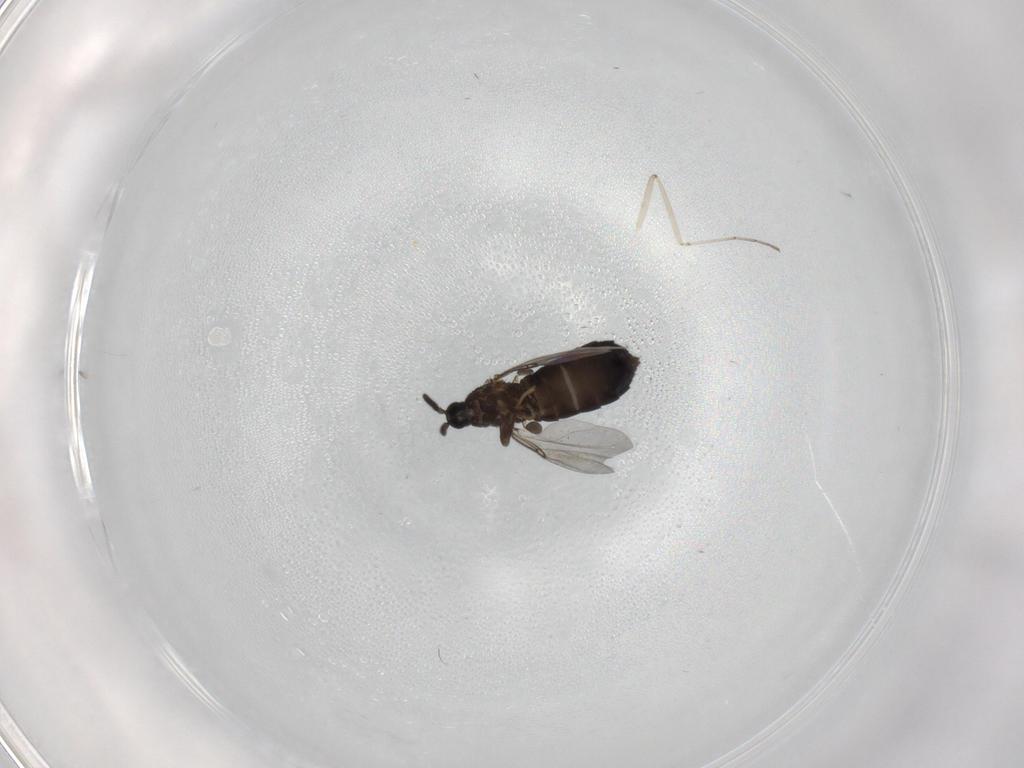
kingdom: Animalia
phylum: Arthropoda
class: Insecta
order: Diptera
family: Scatopsidae
